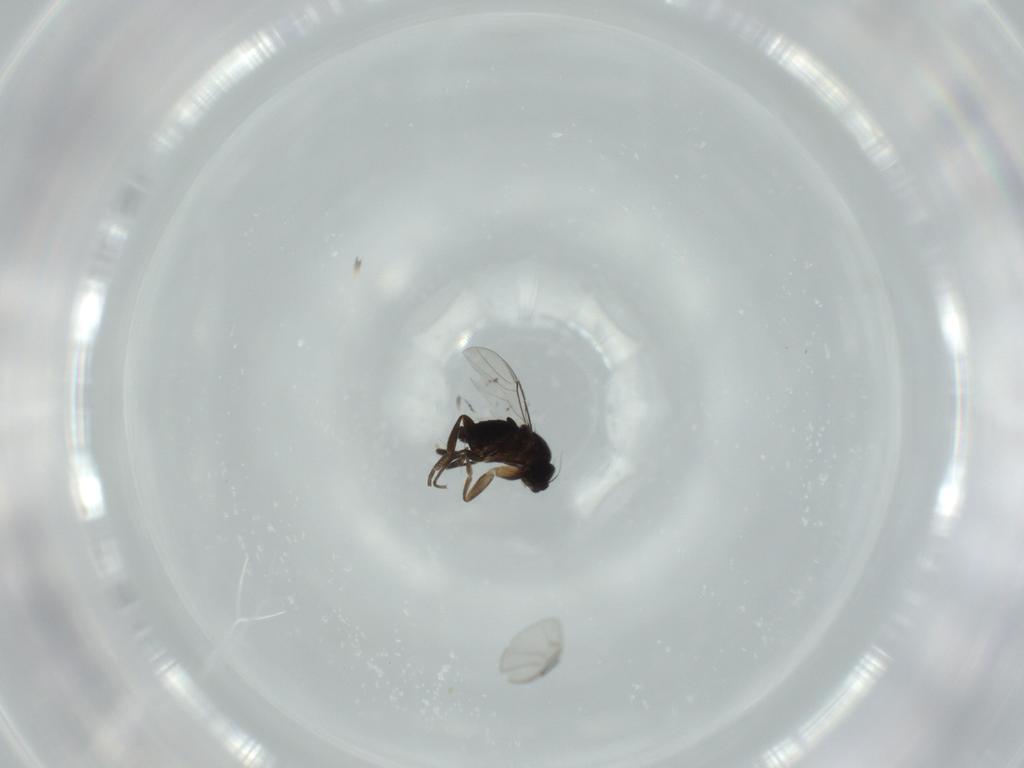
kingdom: Animalia
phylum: Arthropoda
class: Insecta
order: Diptera
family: Phoridae
